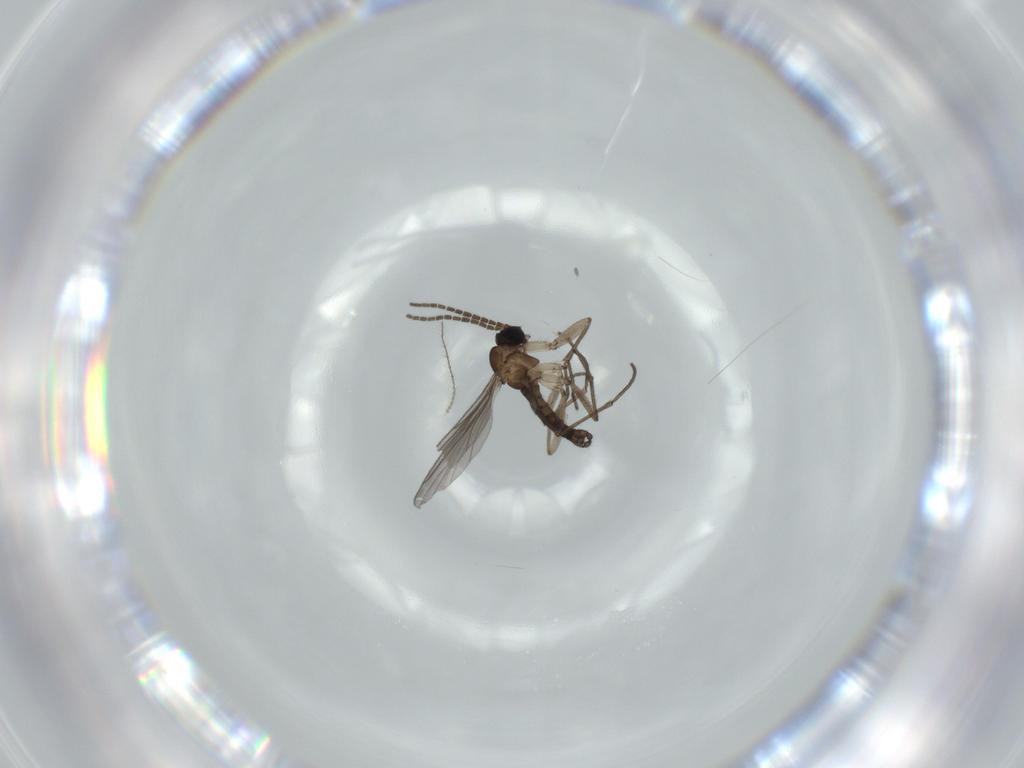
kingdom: Animalia
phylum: Arthropoda
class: Insecta
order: Diptera
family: Sciaridae
